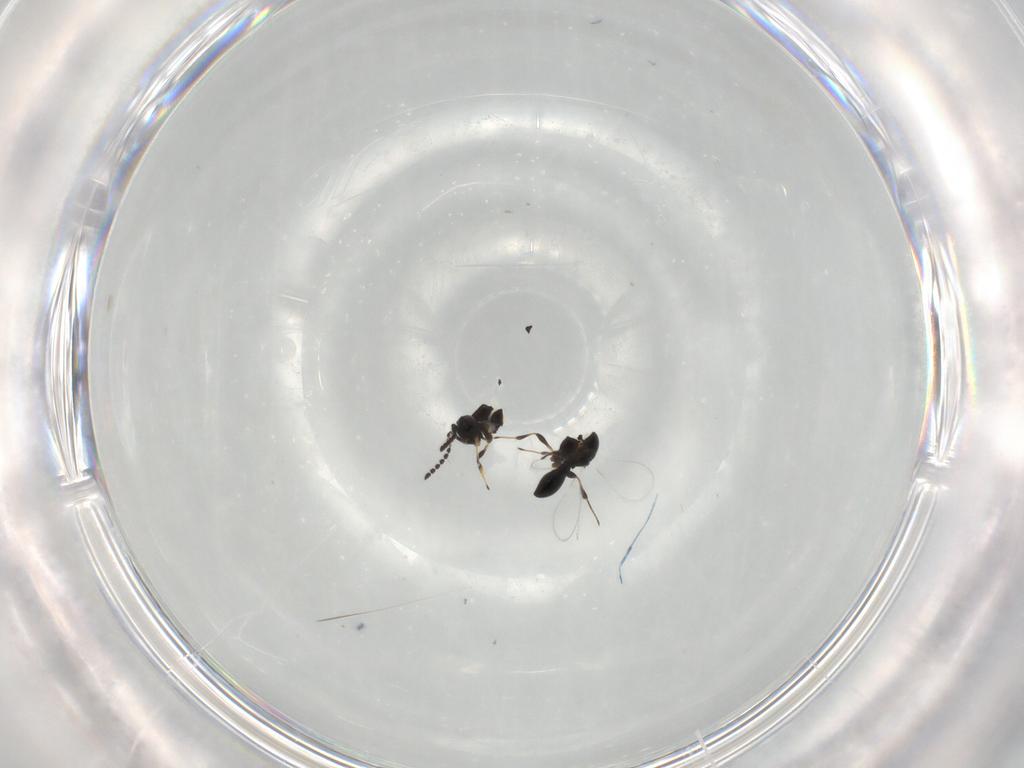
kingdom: Animalia
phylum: Arthropoda
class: Insecta
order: Hymenoptera
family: Platygastridae
